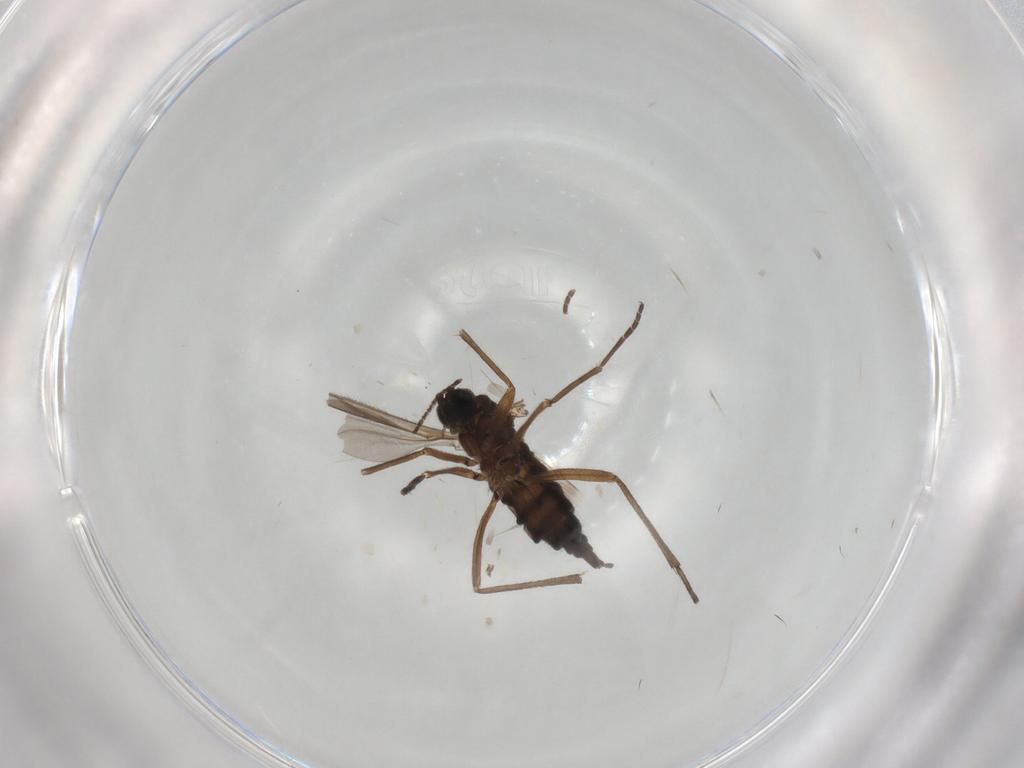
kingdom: Animalia
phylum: Arthropoda
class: Insecta
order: Diptera
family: Sciaridae
